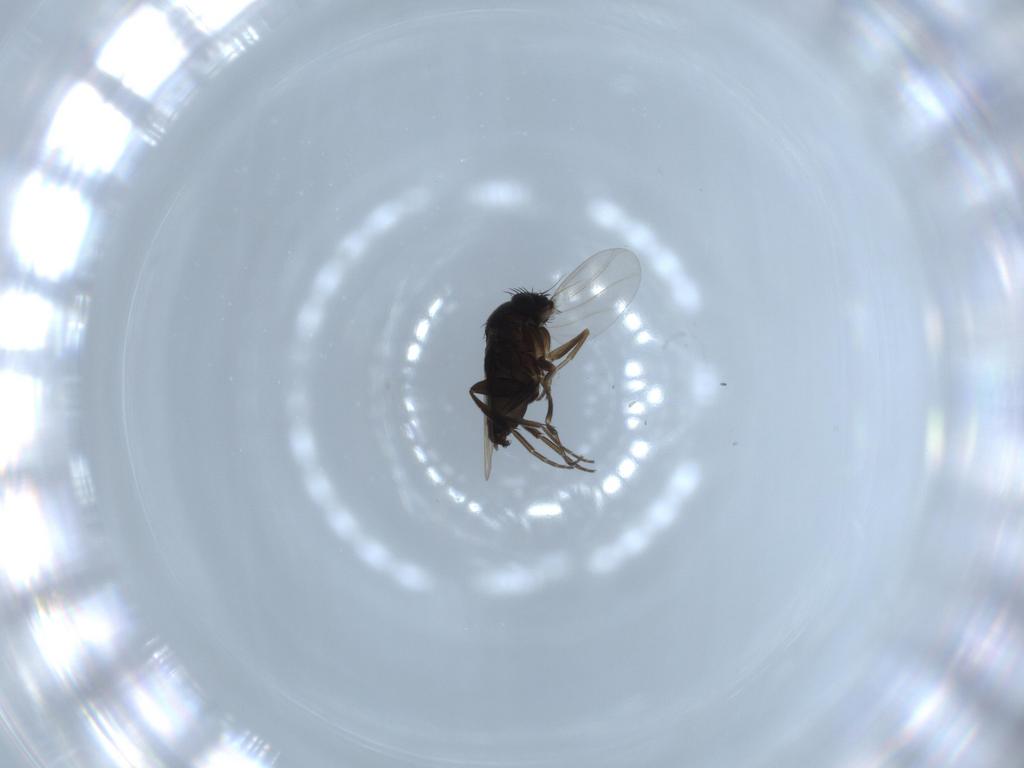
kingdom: Animalia
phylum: Arthropoda
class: Insecta
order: Diptera
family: Phoridae
